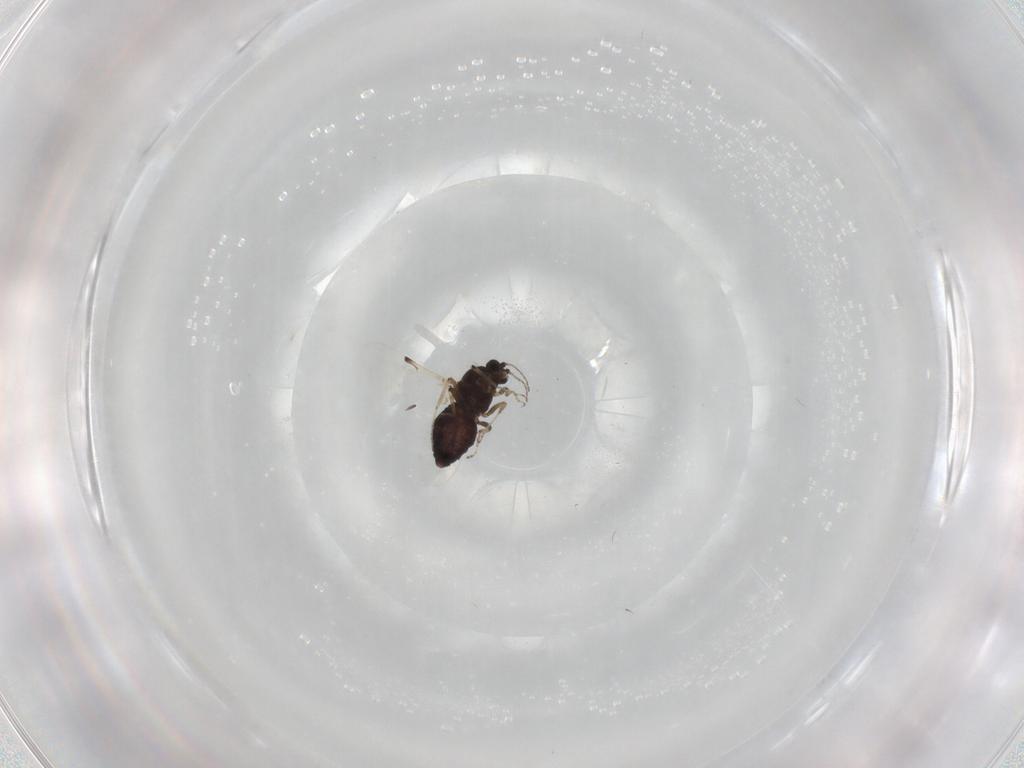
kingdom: Animalia
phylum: Arthropoda
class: Insecta
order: Diptera
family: Ceratopogonidae
